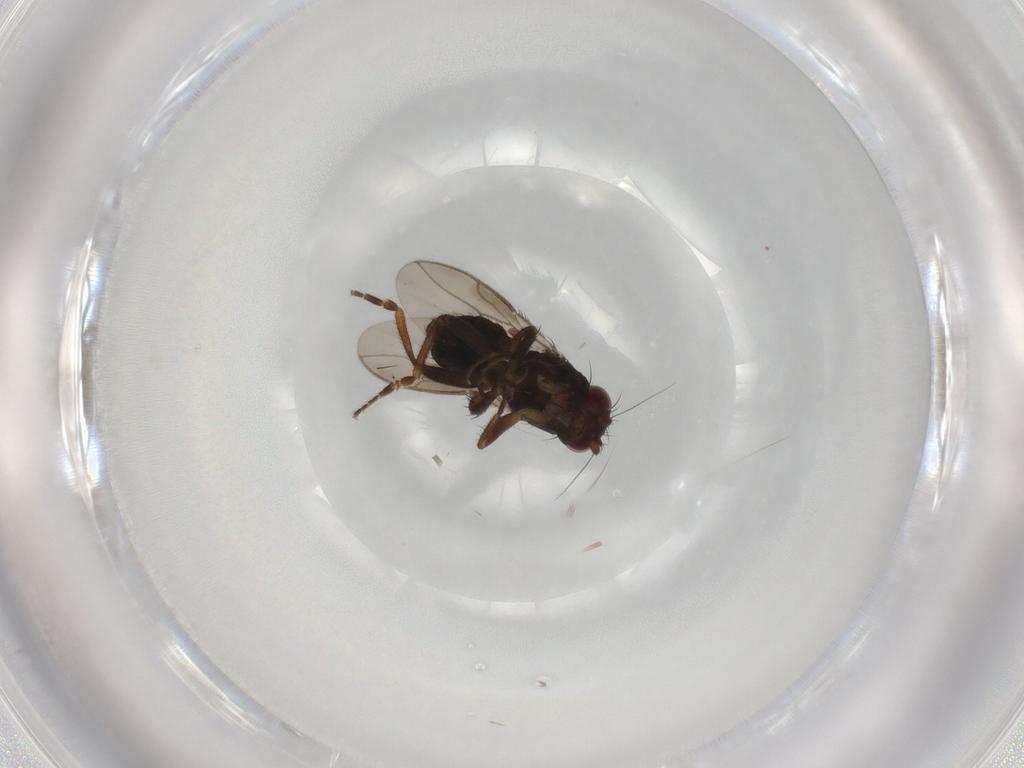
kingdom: Animalia
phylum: Arthropoda
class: Insecta
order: Diptera
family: Sphaeroceridae
